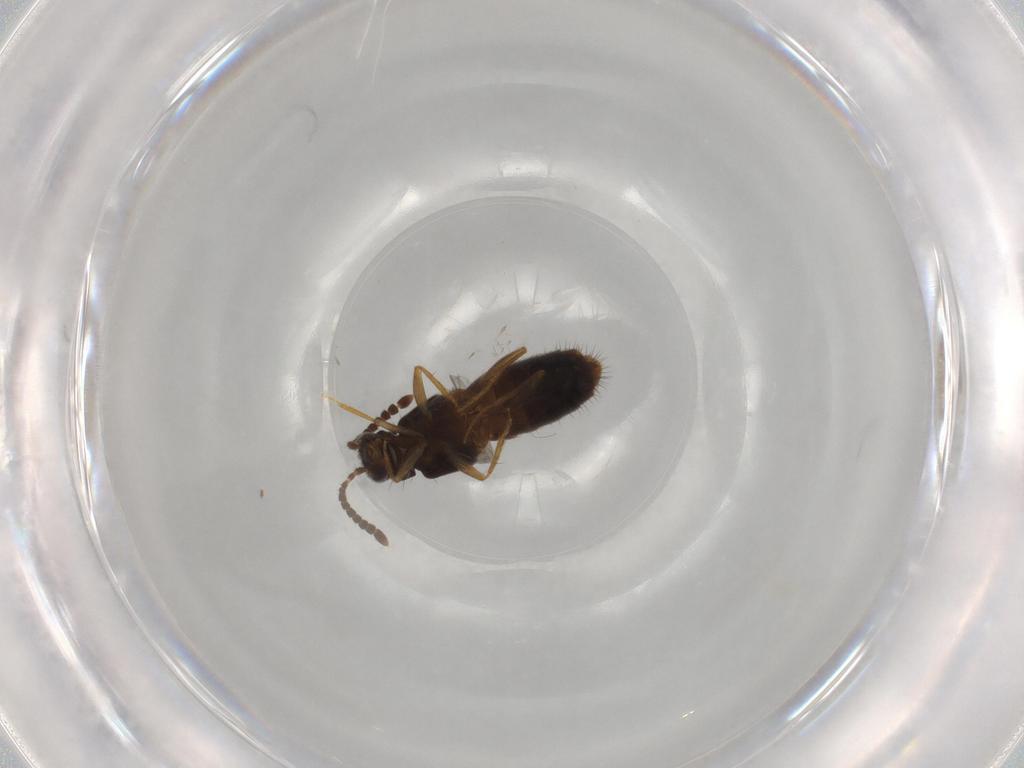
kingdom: Animalia
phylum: Arthropoda
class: Insecta
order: Coleoptera
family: Staphylinidae
